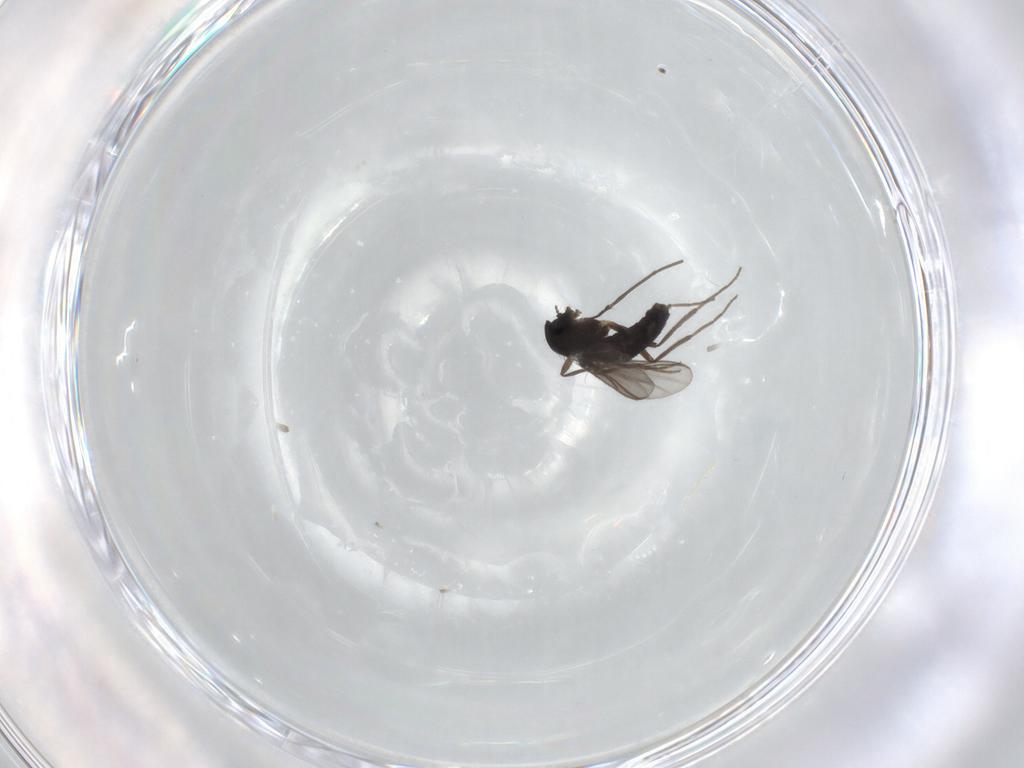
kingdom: Animalia
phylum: Arthropoda
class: Insecta
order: Diptera
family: Chironomidae
